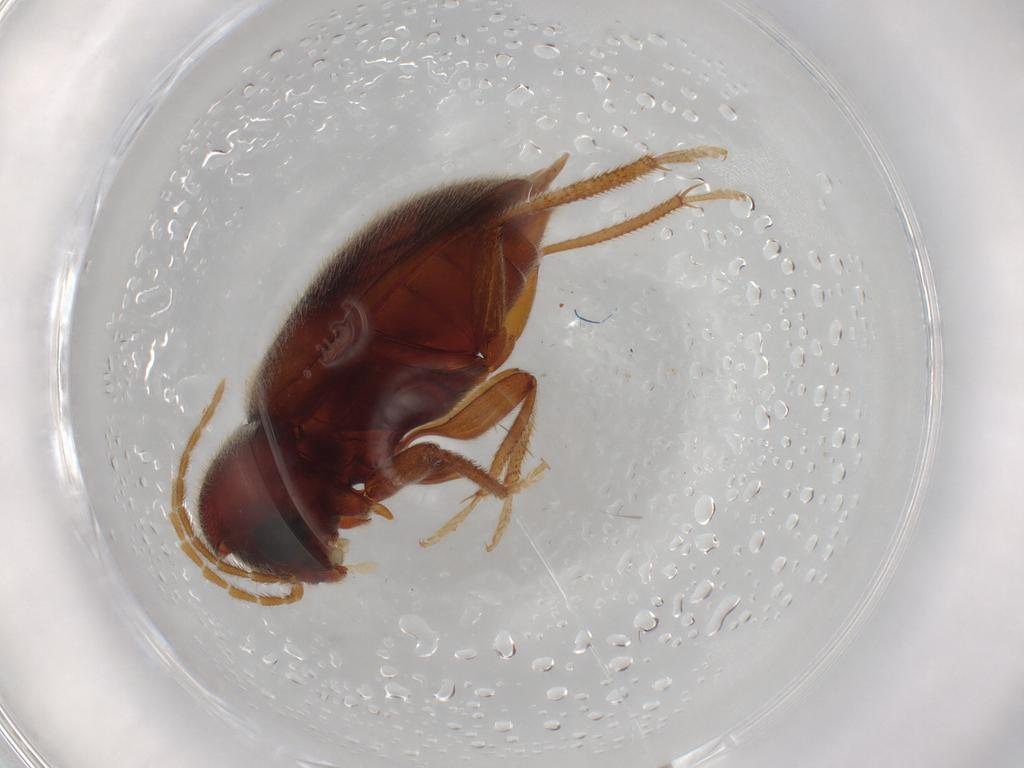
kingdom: Animalia
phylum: Arthropoda
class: Insecta
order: Coleoptera
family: Ptilodactylidae
